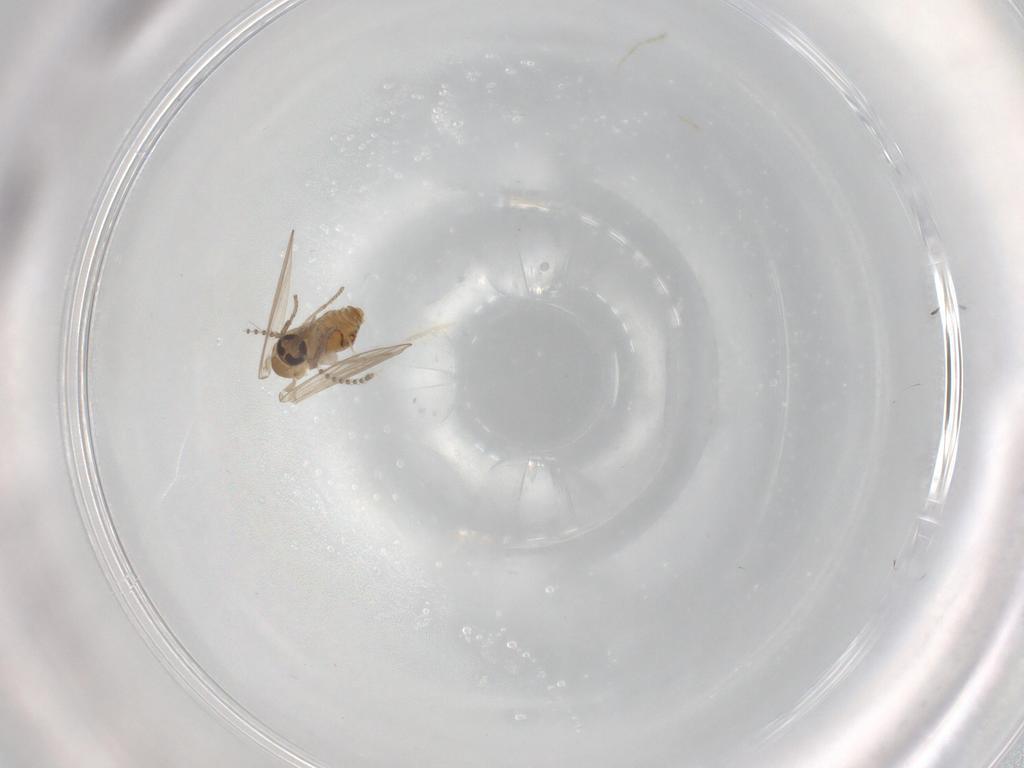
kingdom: Animalia
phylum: Arthropoda
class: Insecta
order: Diptera
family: Psychodidae
